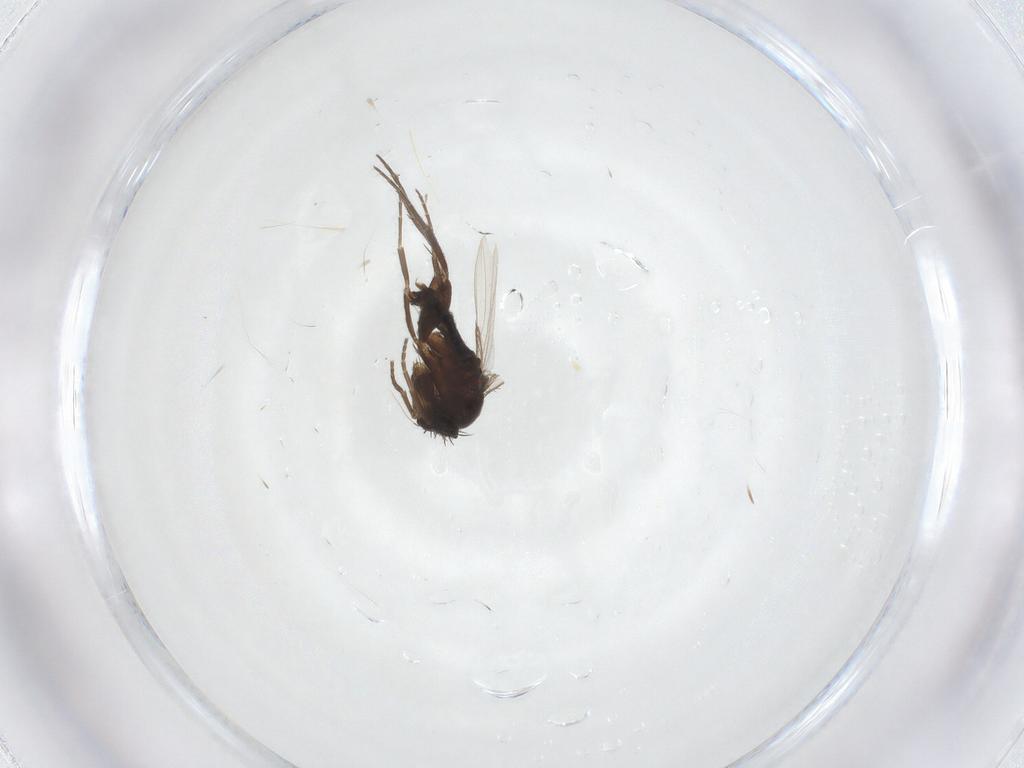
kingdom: Animalia
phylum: Arthropoda
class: Insecta
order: Diptera
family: Phoridae
